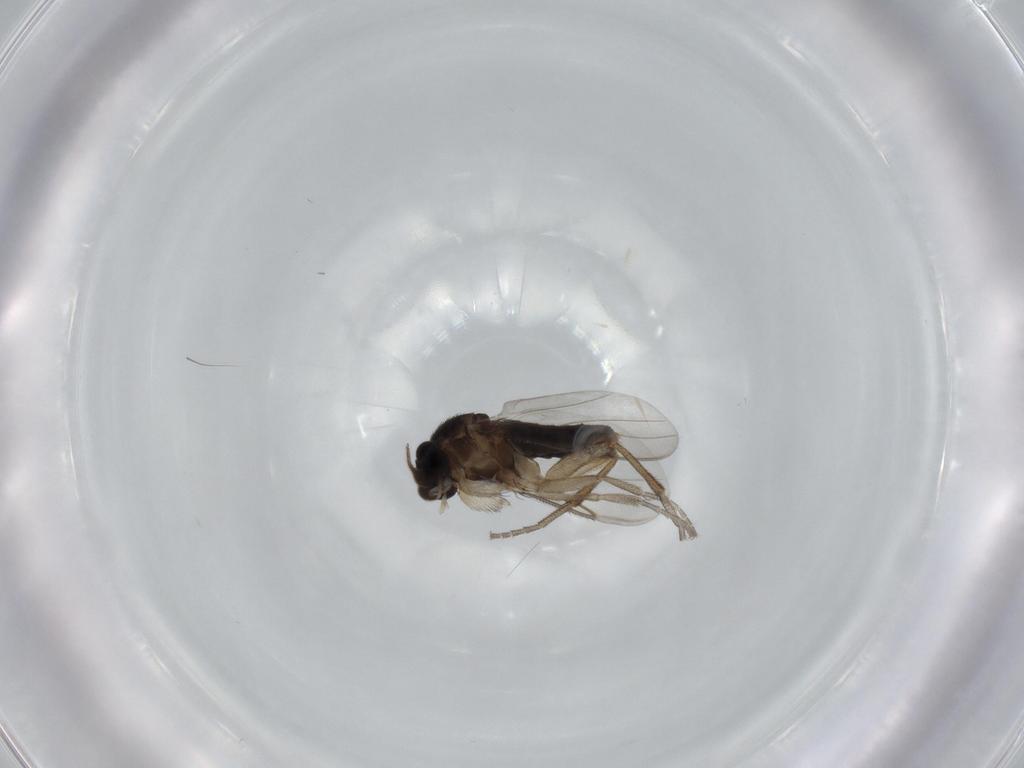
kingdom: Animalia
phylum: Arthropoda
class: Insecta
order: Diptera
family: Phoridae
